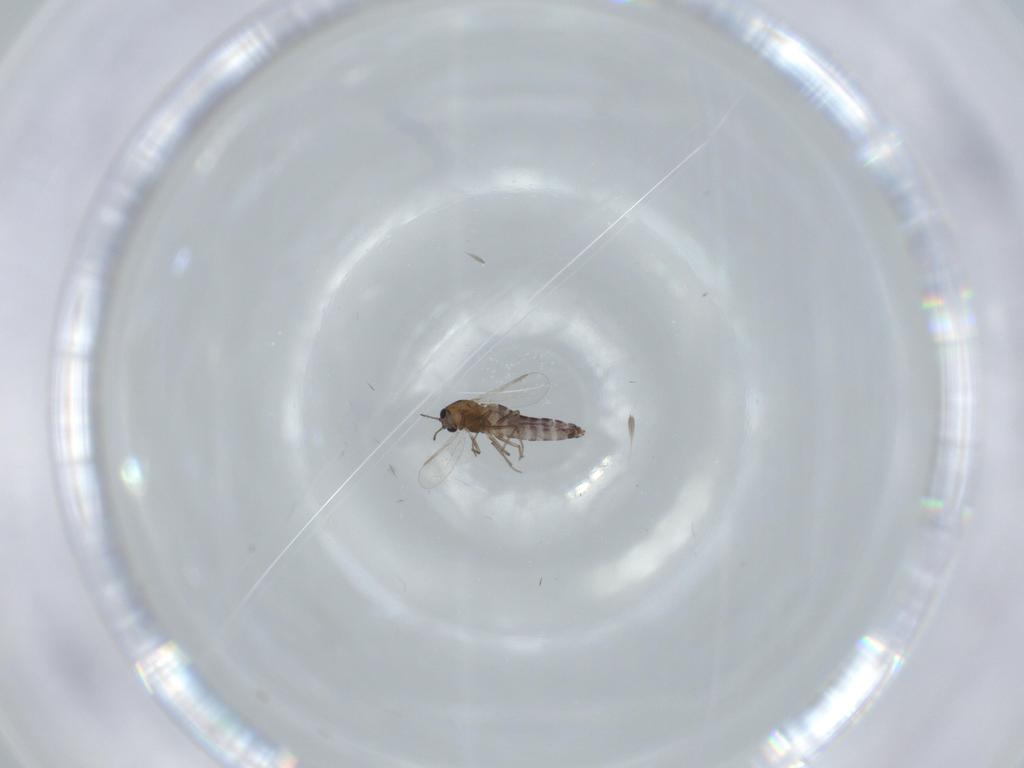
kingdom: Animalia
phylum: Arthropoda
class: Insecta
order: Diptera
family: Chironomidae
